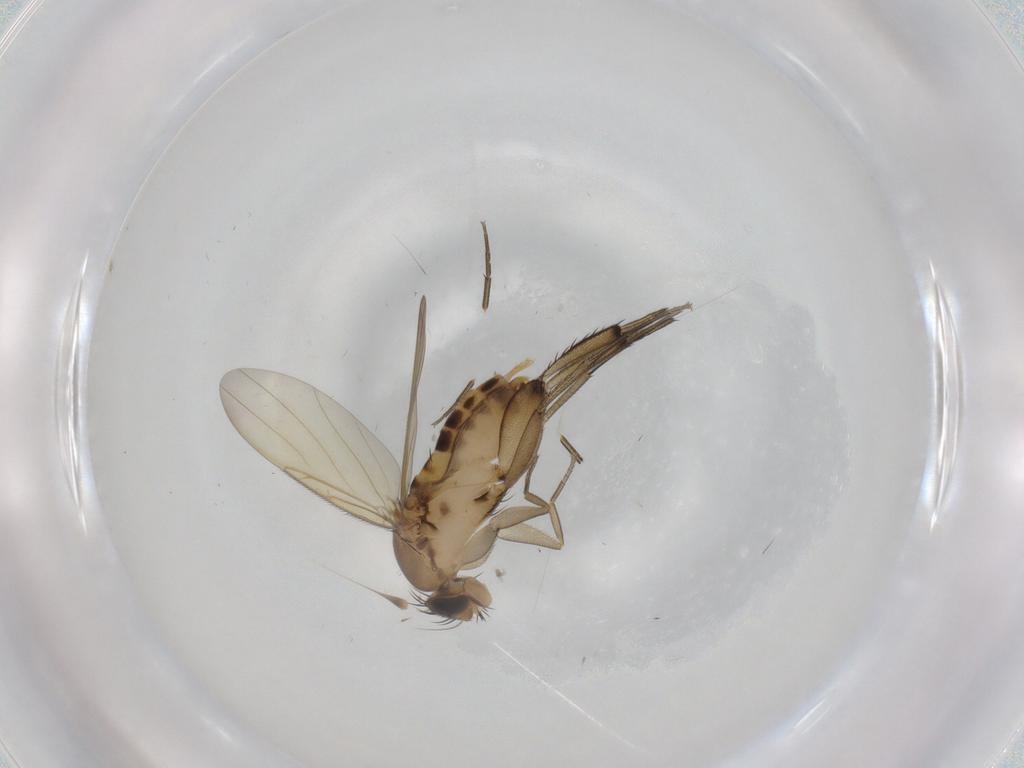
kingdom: Animalia
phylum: Arthropoda
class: Insecta
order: Diptera
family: Phoridae
